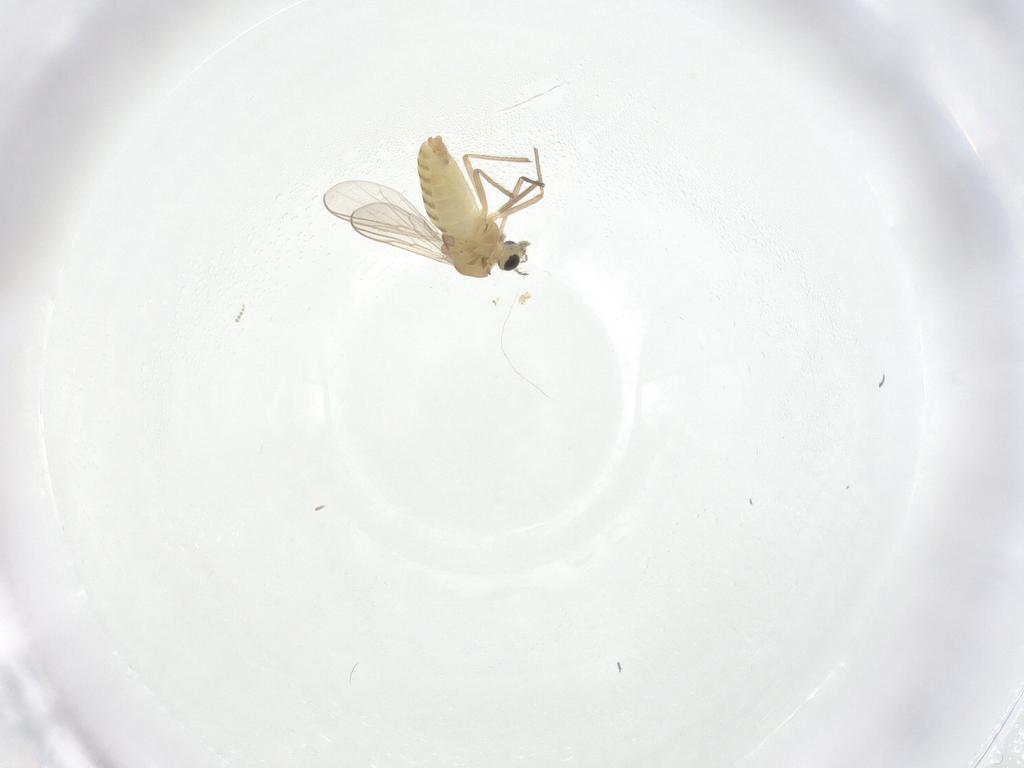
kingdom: Animalia
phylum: Arthropoda
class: Insecta
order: Diptera
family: Chironomidae
